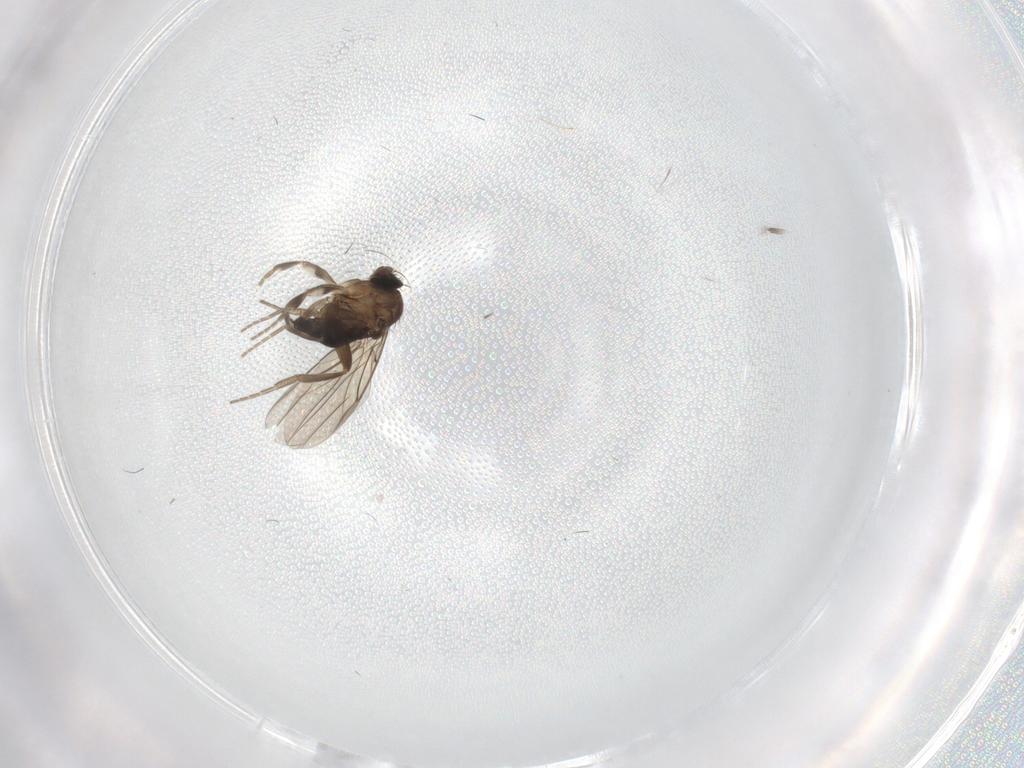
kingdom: Animalia
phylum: Arthropoda
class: Insecta
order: Diptera
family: Phoridae
